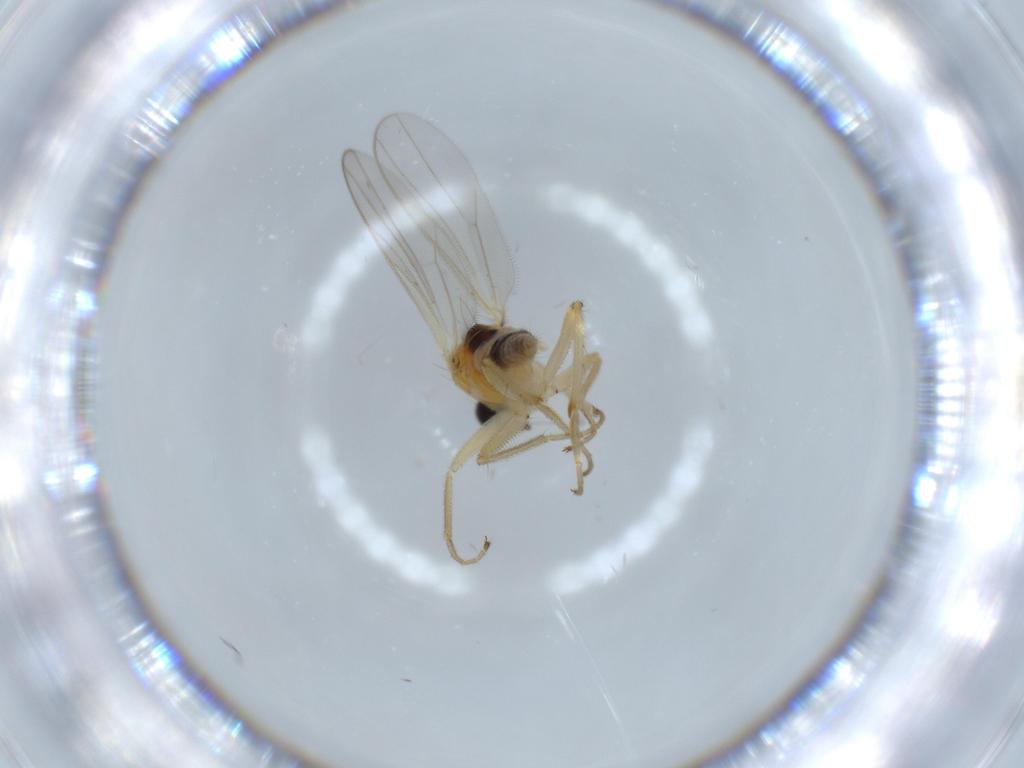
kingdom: Animalia
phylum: Arthropoda
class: Insecta
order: Diptera
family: Hybotidae
